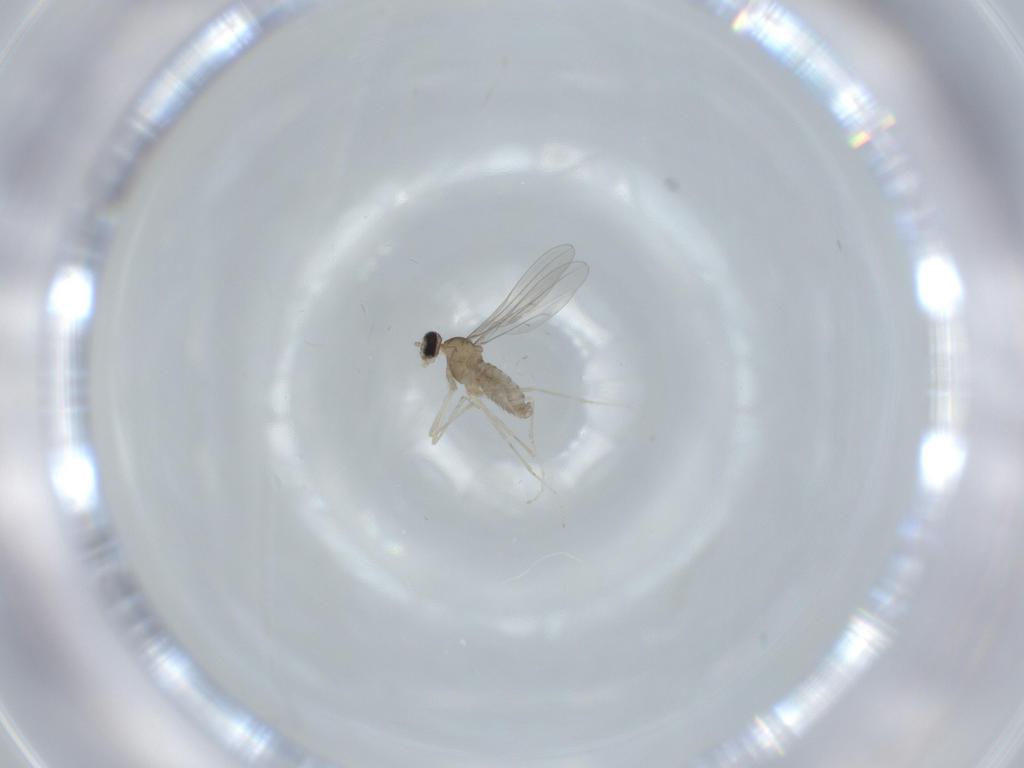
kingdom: Animalia
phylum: Arthropoda
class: Insecta
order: Diptera
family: Cecidomyiidae
